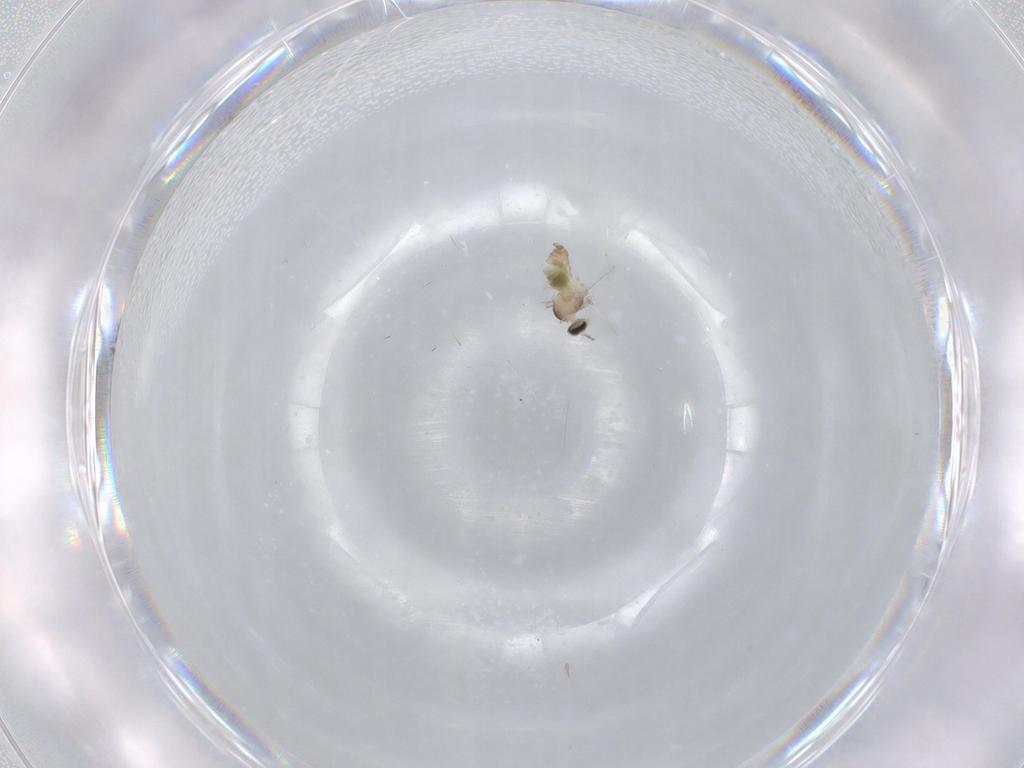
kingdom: Animalia
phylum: Arthropoda
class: Insecta
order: Diptera
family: Cecidomyiidae
